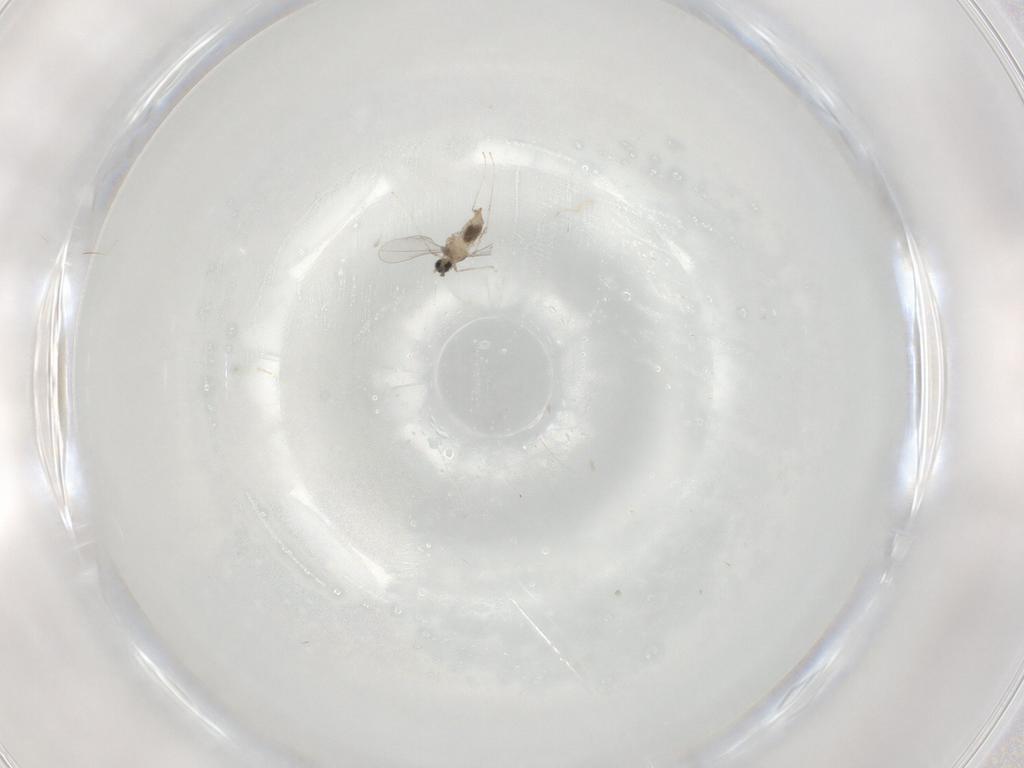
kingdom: Animalia
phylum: Arthropoda
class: Insecta
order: Diptera
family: Cecidomyiidae
